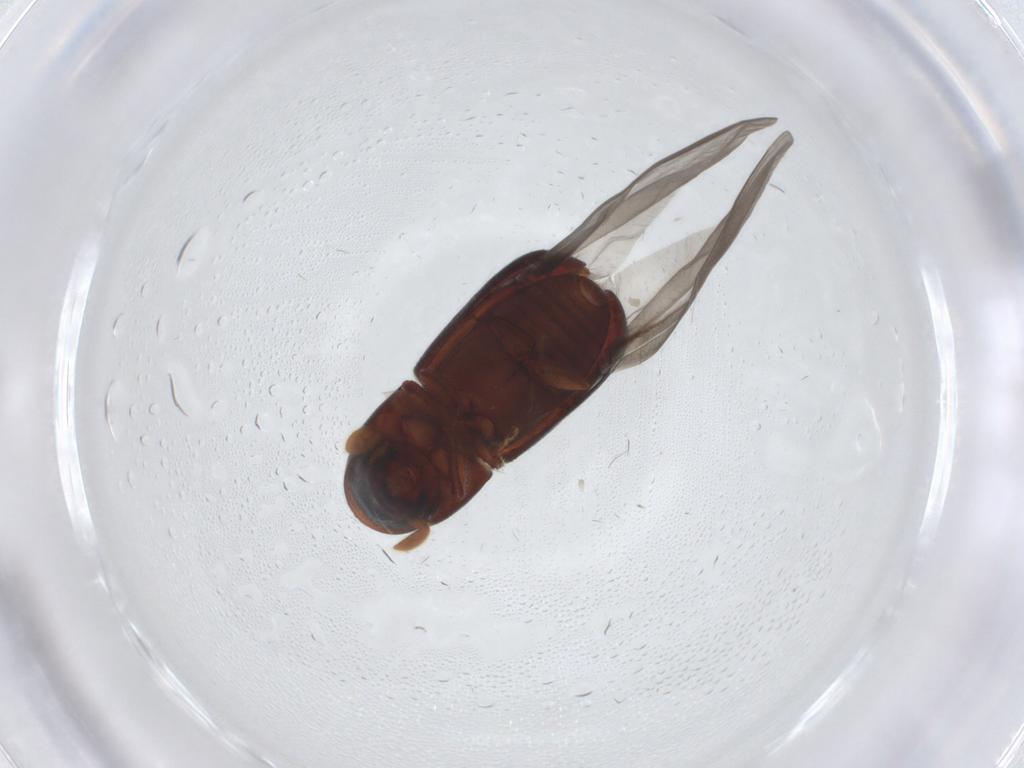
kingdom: Animalia
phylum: Arthropoda
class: Insecta
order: Coleoptera
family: Curculionidae
